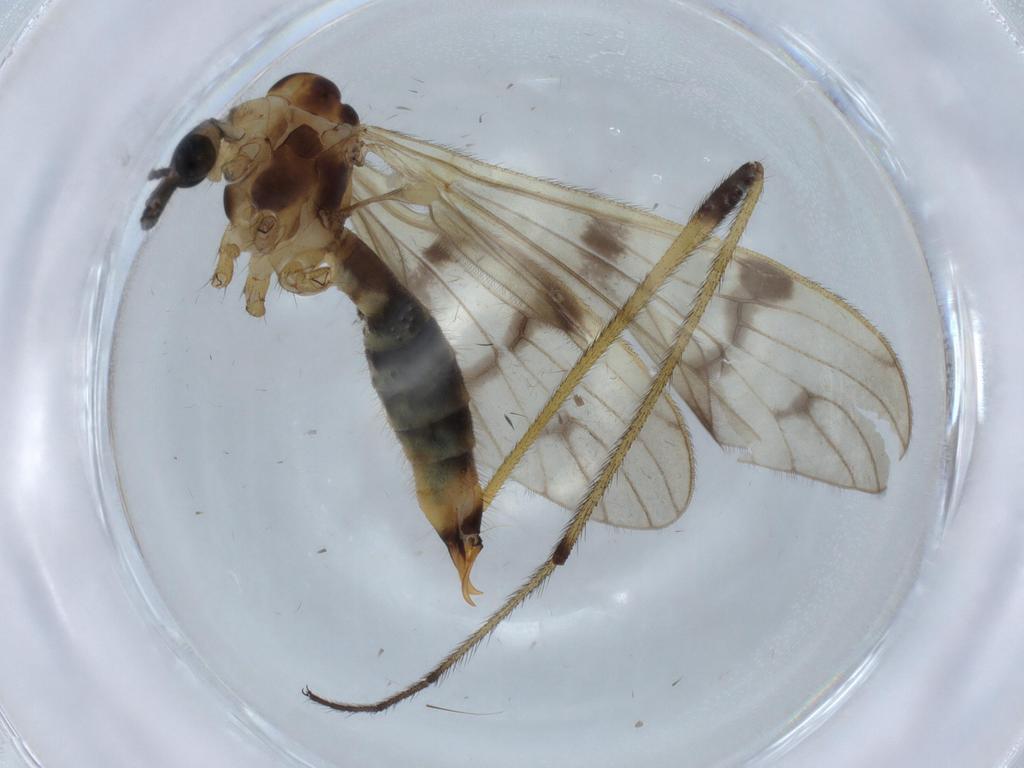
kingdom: Animalia
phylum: Arthropoda
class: Insecta
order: Diptera
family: Limoniidae
